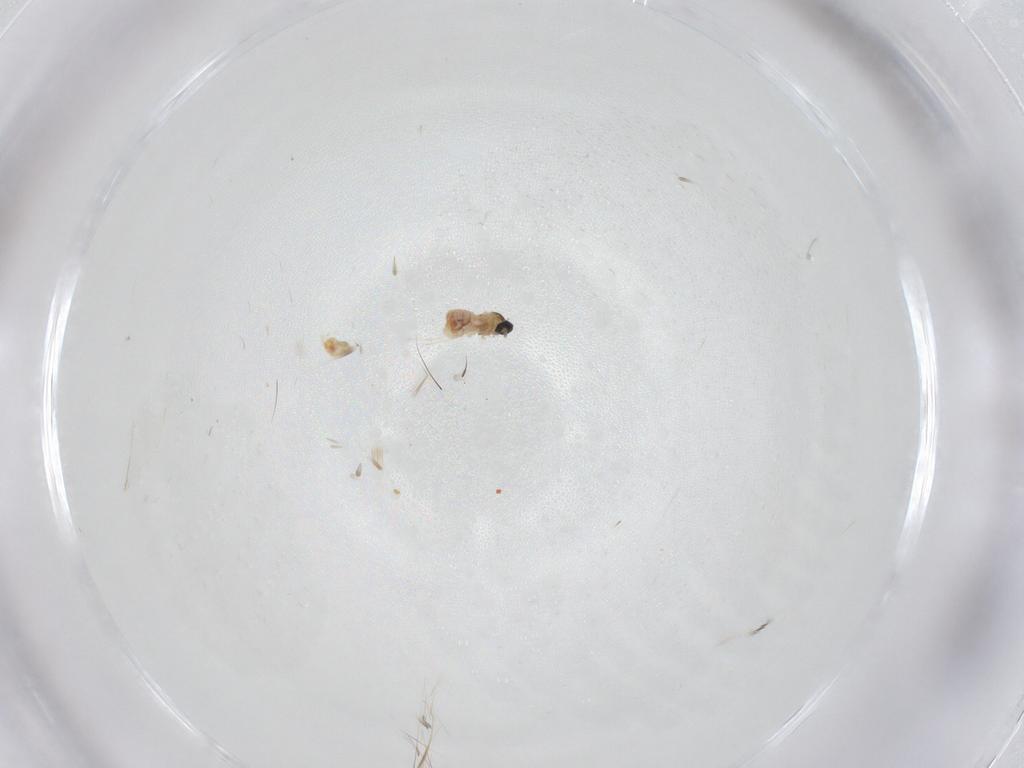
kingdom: Animalia
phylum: Arthropoda
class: Insecta
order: Diptera
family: Cecidomyiidae
